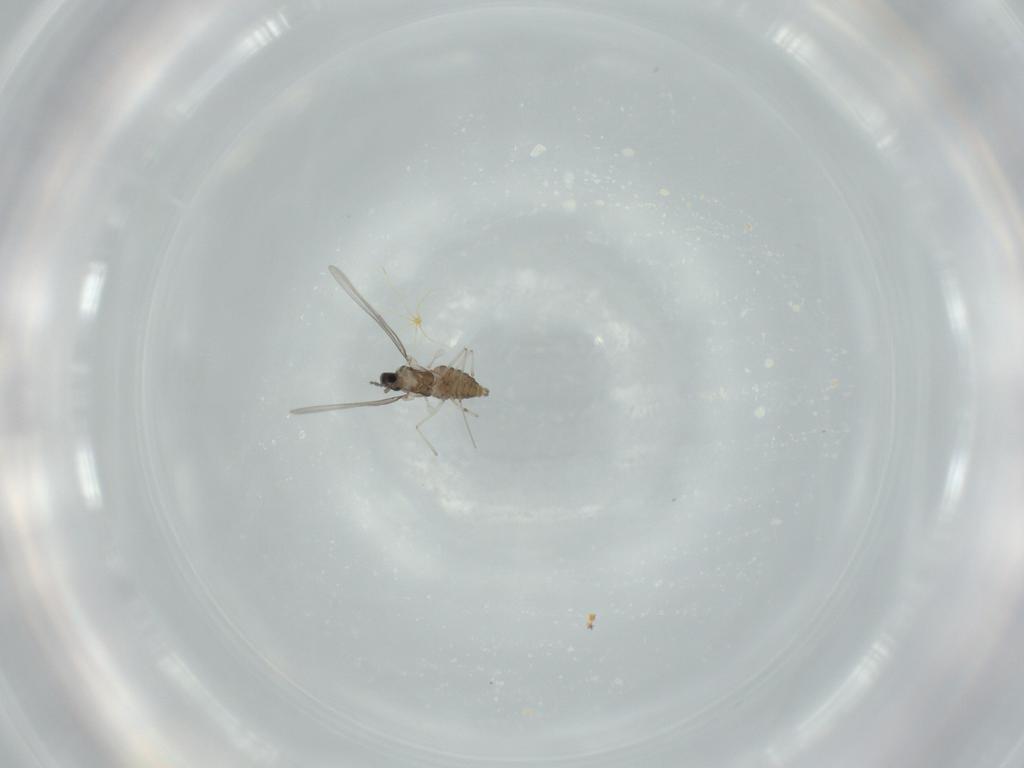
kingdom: Animalia
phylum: Arthropoda
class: Insecta
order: Diptera
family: Cecidomyiidae
